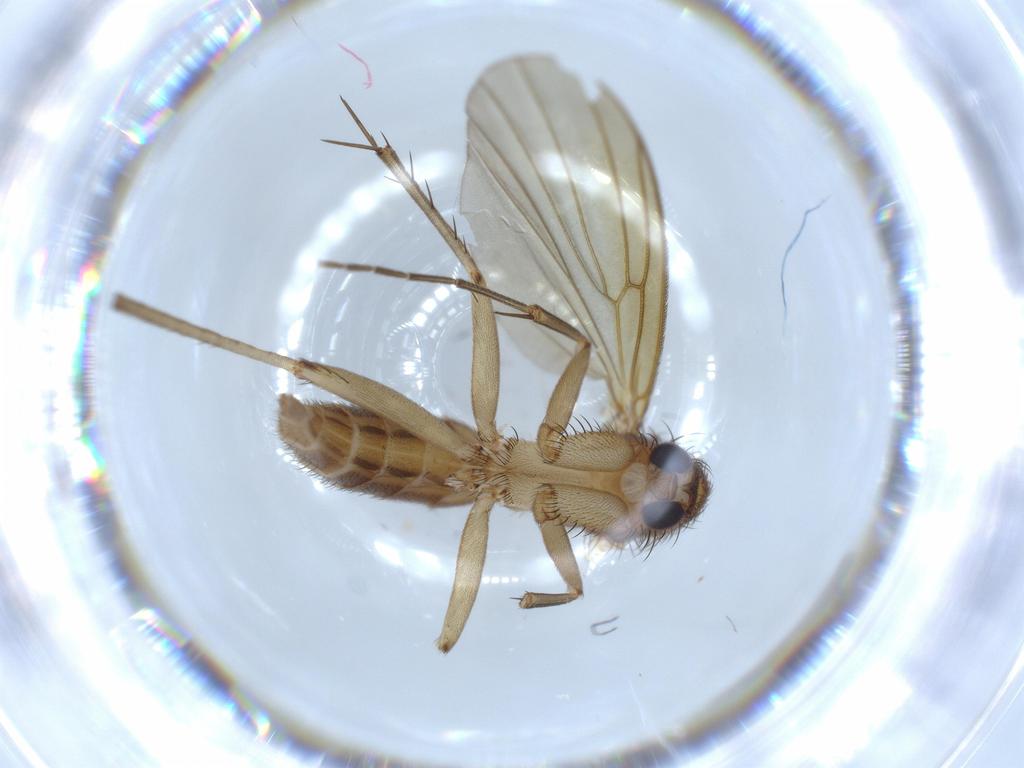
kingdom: Animalia
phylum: Arthropoda
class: Insecta
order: Diptera
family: Mycetophilidae
